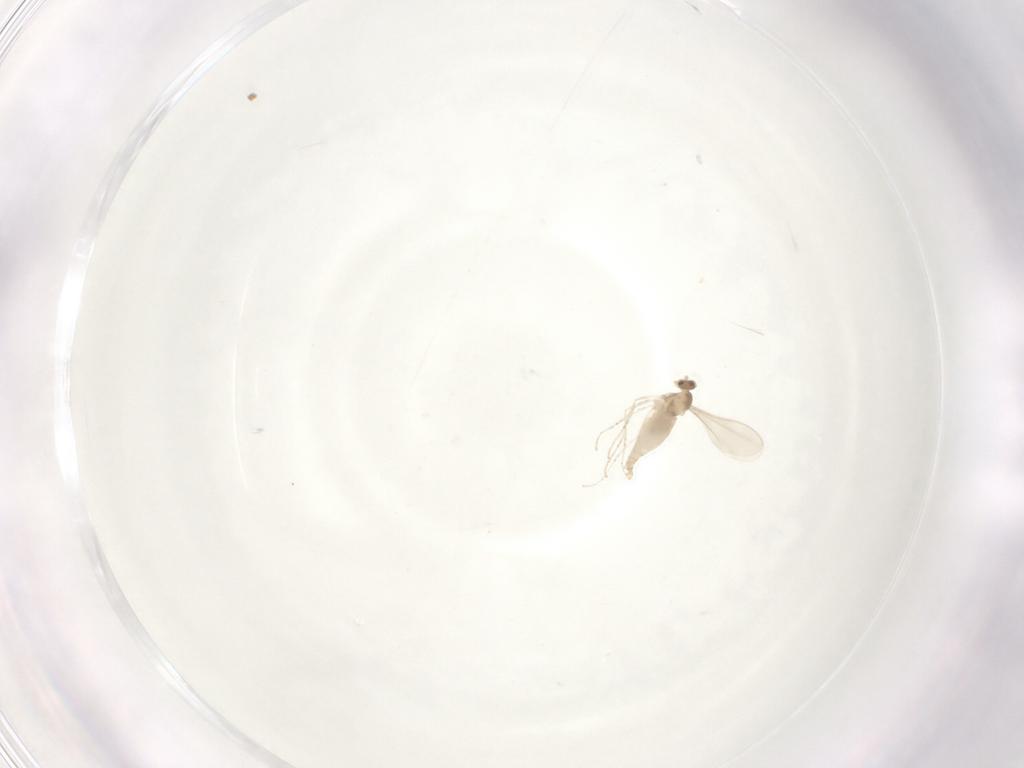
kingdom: Animalia
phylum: Arthropoda
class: Insecta
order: Diptera
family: Cecidomyiidae
